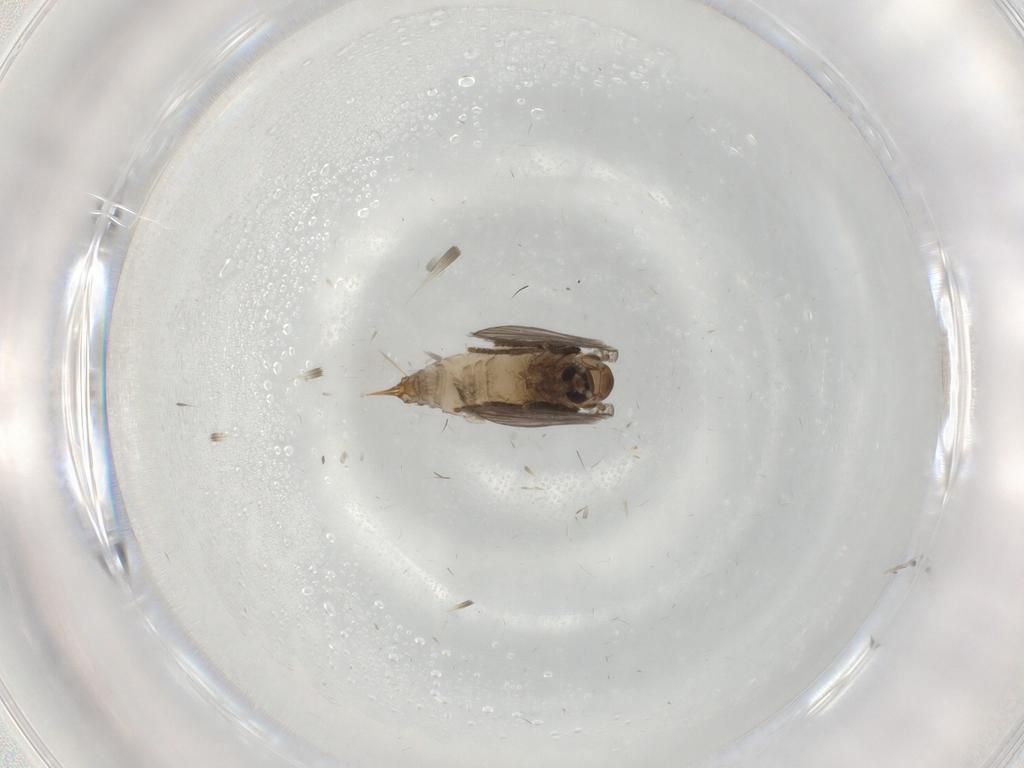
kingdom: Animalia
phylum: Arthropoda
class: Insecta
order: Diptera
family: Psychodidae
